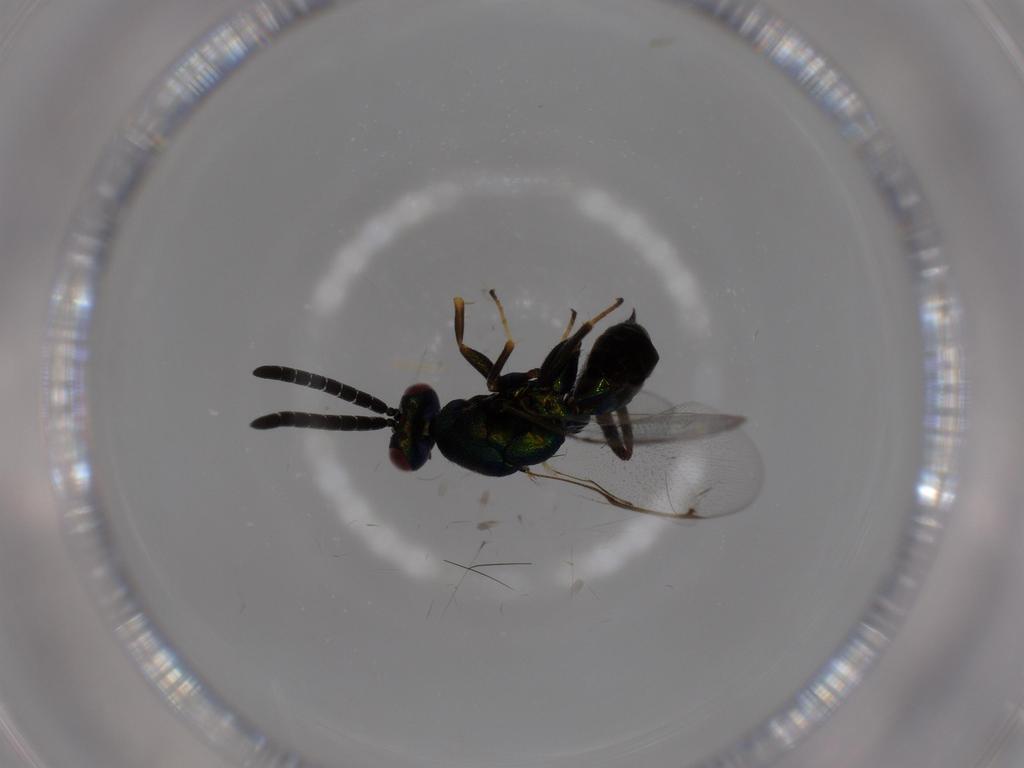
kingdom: Animalia
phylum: Arthropoda
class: Insecta
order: Hymenoptera
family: Torymidae
